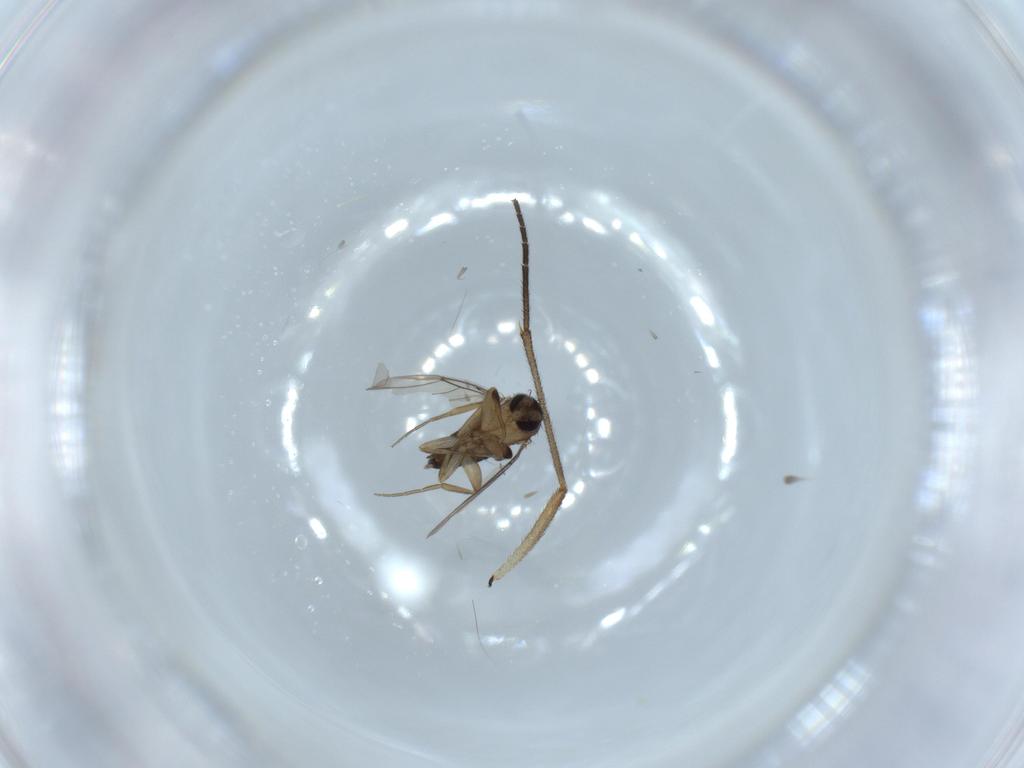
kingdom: Animalia
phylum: Arthropoda
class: Insecta
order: Diptera
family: Phoridae
